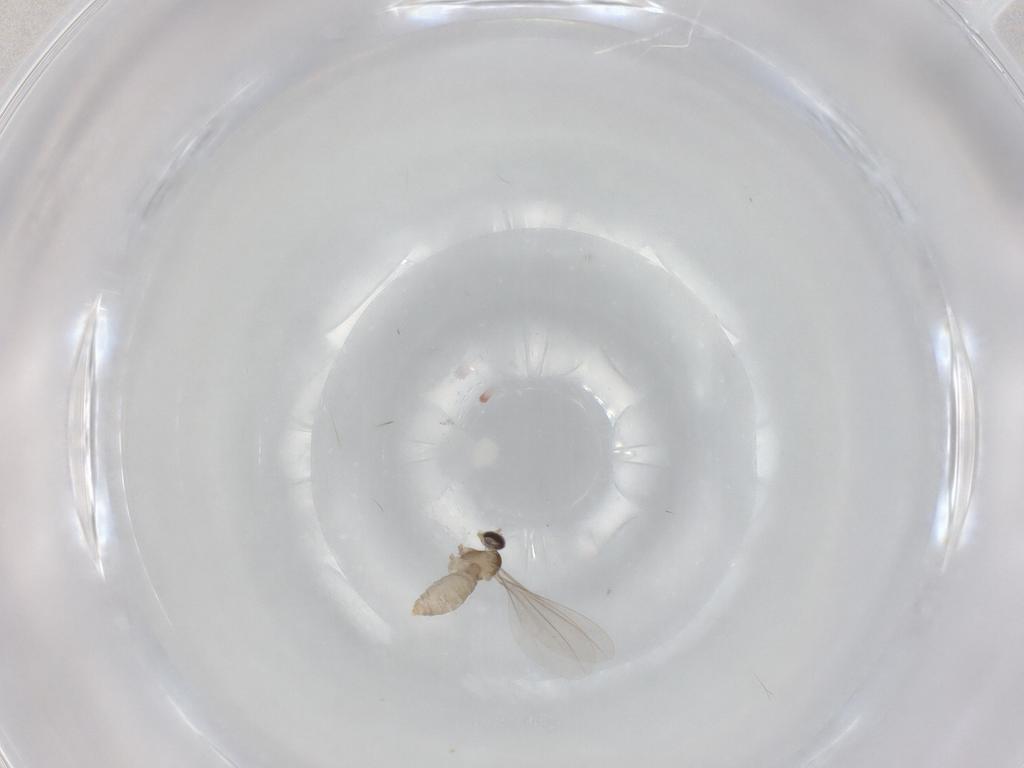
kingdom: Animalia
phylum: Arthropoda
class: Insecta
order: Diptera
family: Cecidomyiidae
